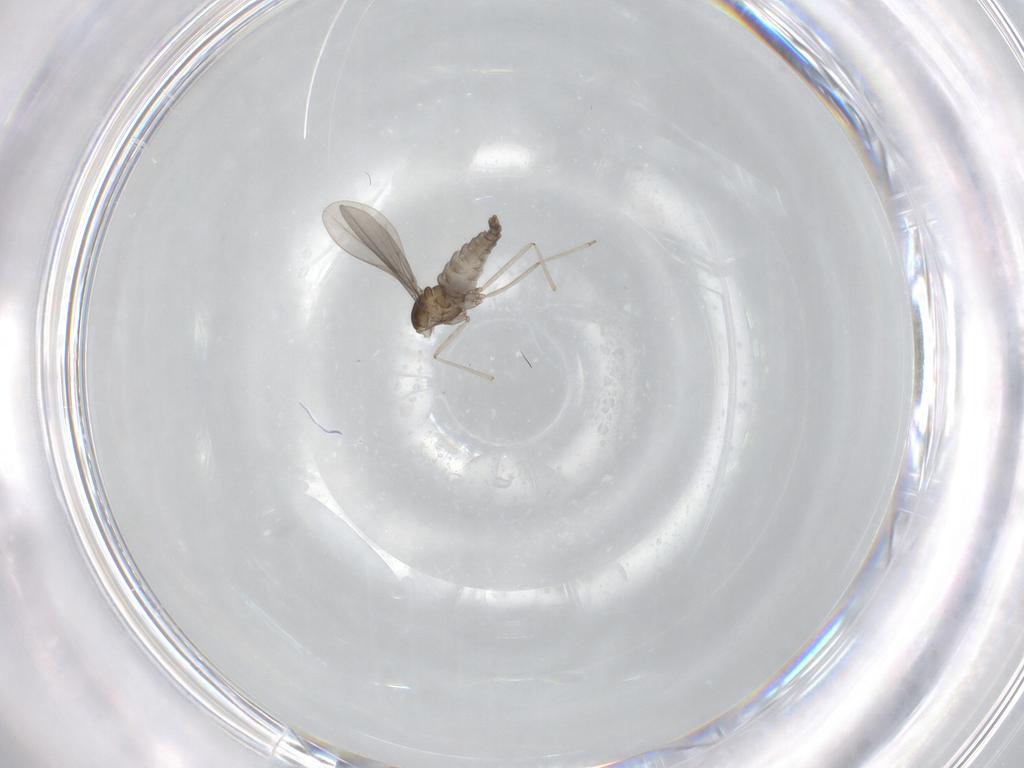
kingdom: Animalia
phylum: Arthropoda
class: Insecta
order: Diptera
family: Cecidomyiidae
